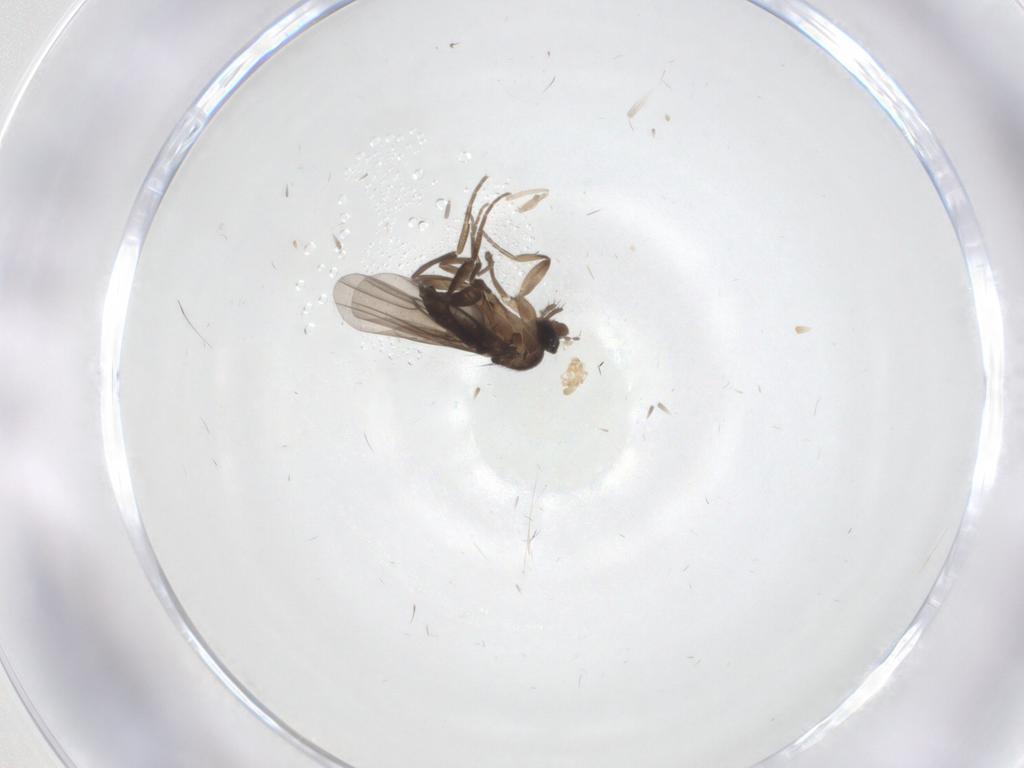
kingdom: Animalia
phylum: Arthropoda
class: Insecta
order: Diptera
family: Phoridae
